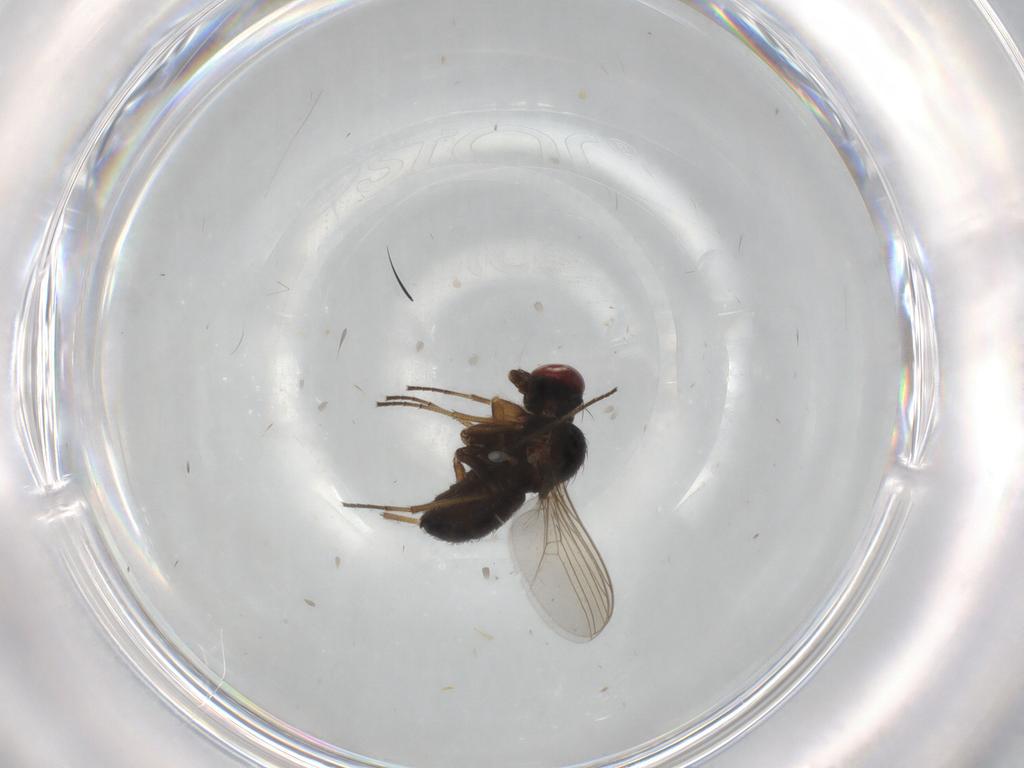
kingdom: Animalia
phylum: Arthropoda
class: Insecta
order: Diptera
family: Dolichopodidae
